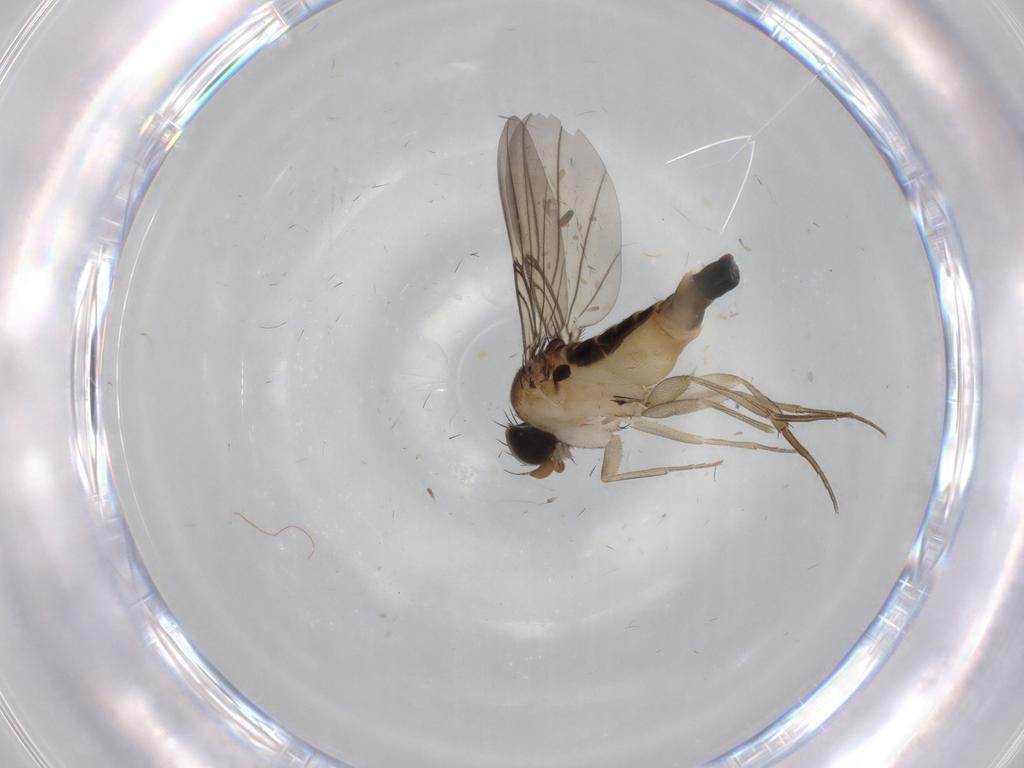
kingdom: Animalia
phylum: Arthropoda
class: Insecta
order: Diptera
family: Phoridae
